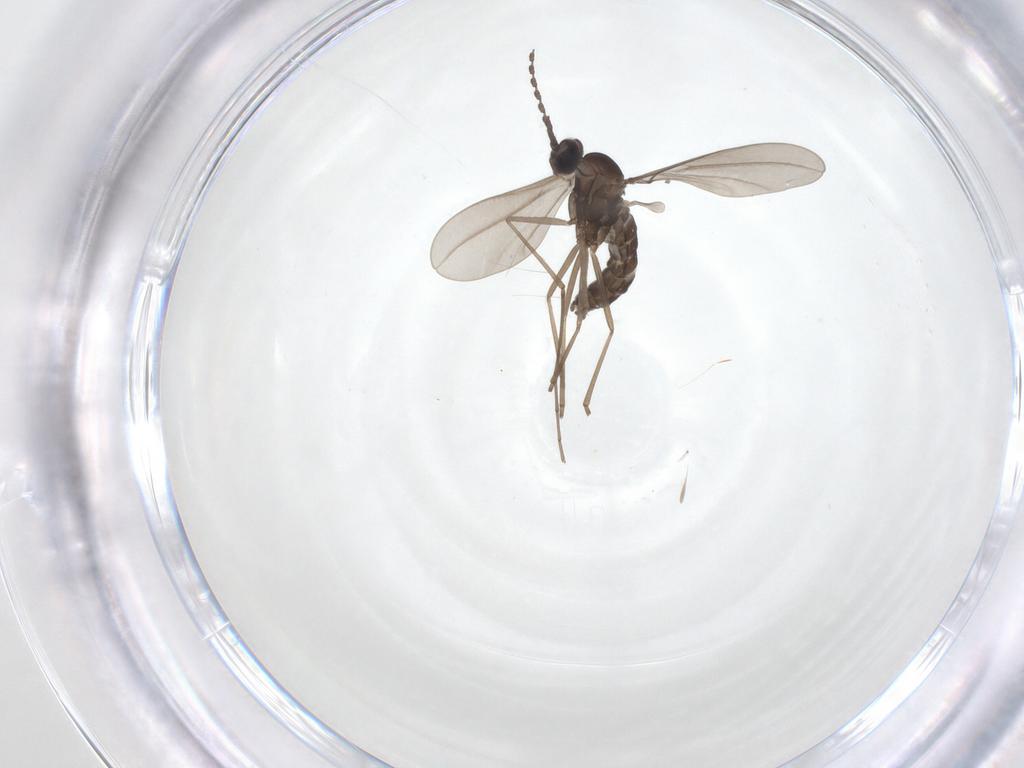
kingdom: Animalia
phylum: Arthropoda
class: Insecta
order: Diptera
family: Cecidomyiidae
